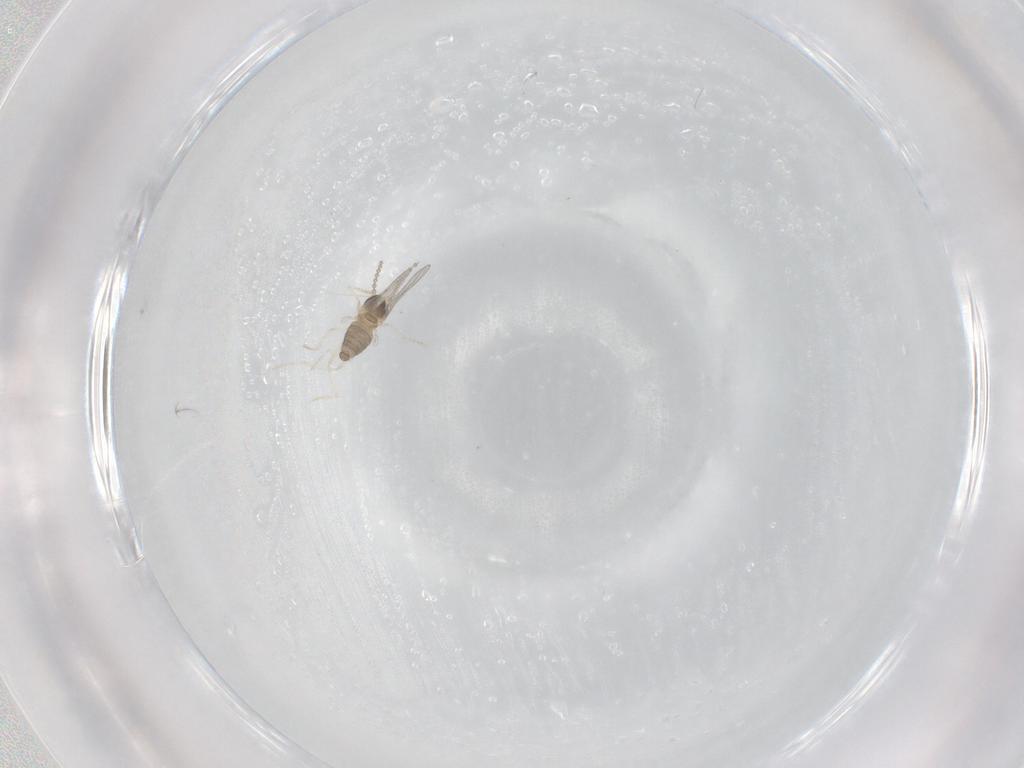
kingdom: Animalia
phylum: Arthropoda
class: Insecta
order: Diptera
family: Cecidomyiidae
